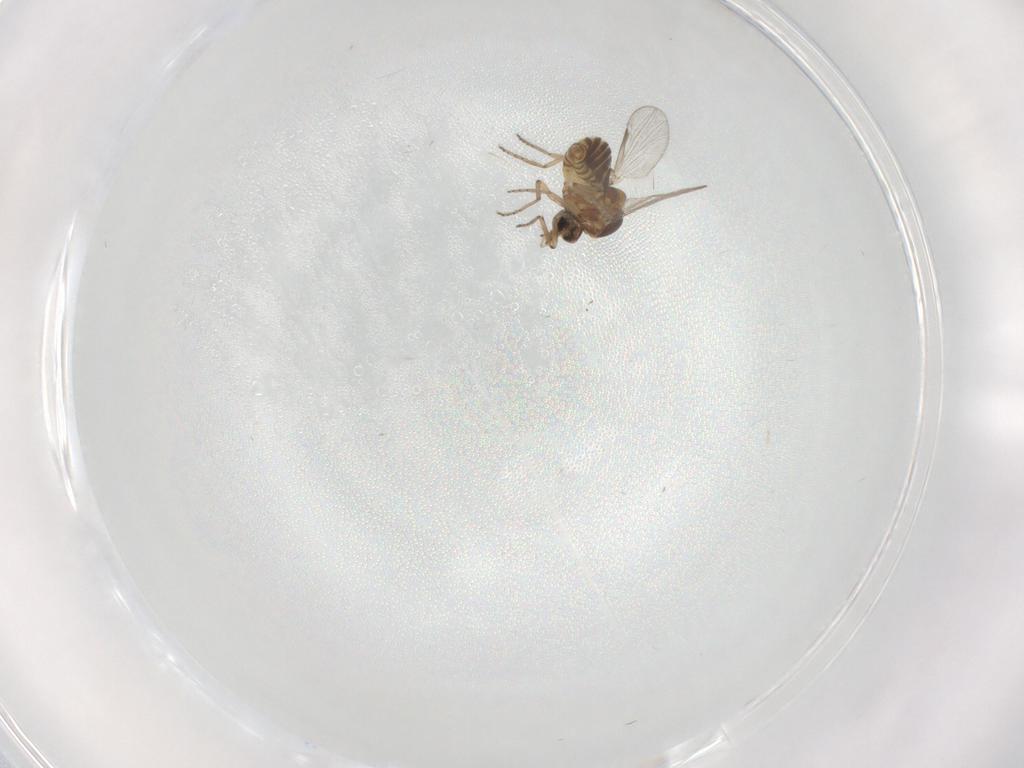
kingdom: Animalia
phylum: Arthropoda
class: Insecta
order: Diptera
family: Ceratopogonidae
